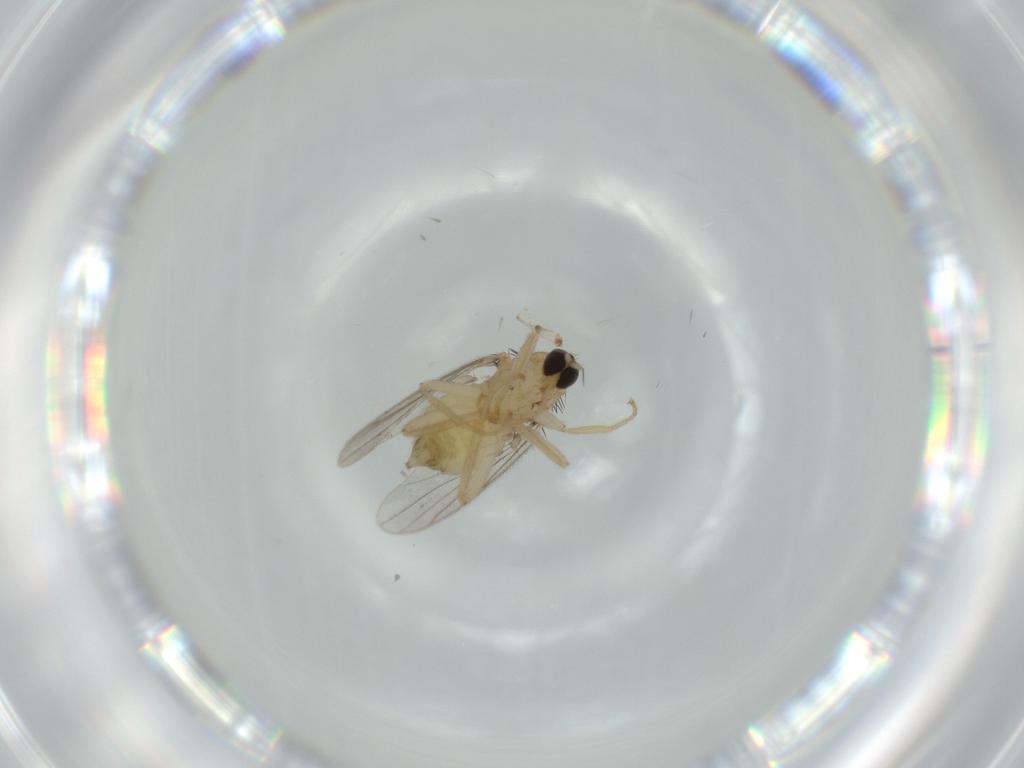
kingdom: Animalia
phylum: Arthropoda
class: Insecta
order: Diptera
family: Hybotidae
